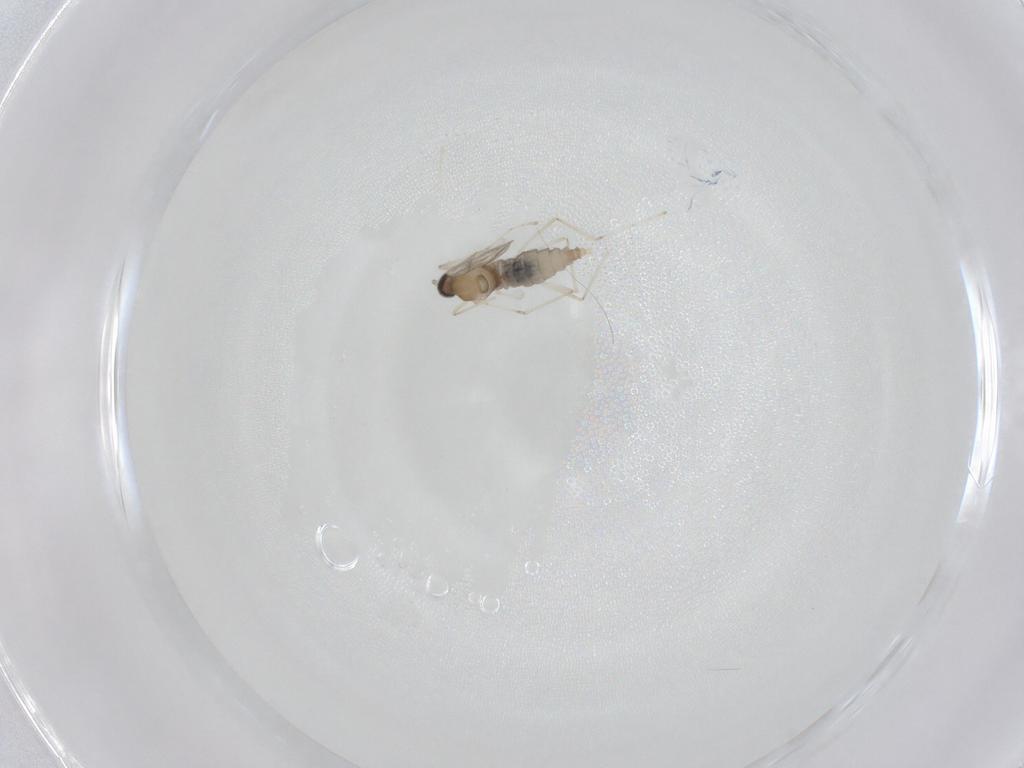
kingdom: Animalia
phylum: Arthropoda
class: Insecta
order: Diptera
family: Cecidomyiidae
